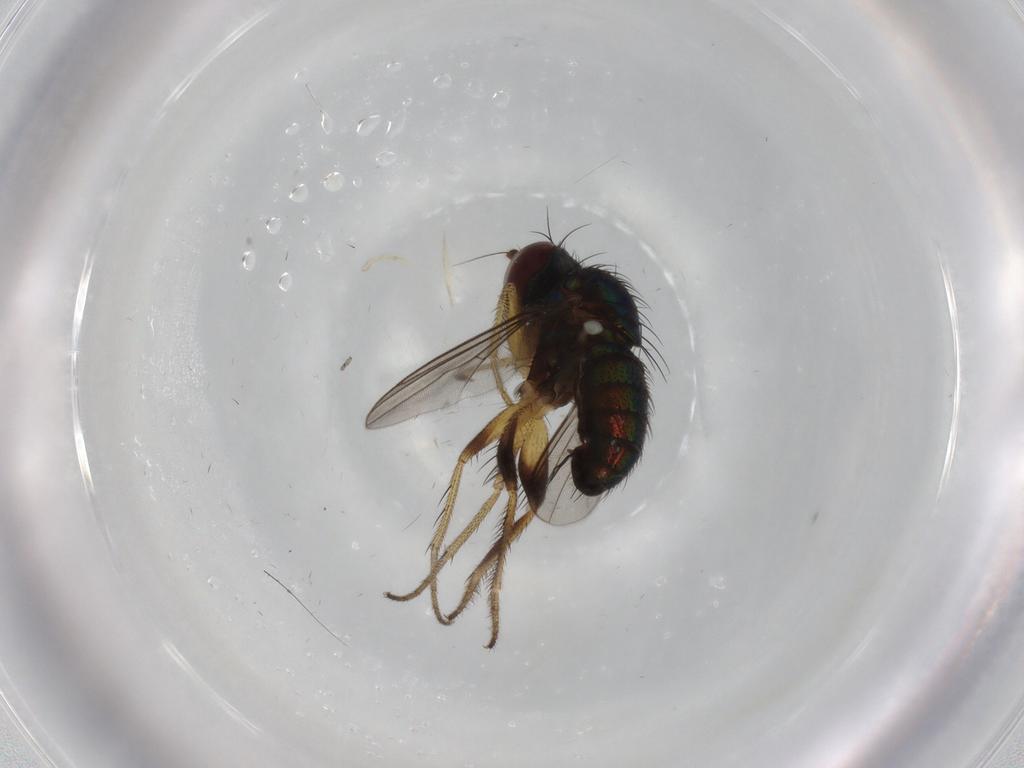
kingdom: Animalia
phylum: Arthropoda
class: Insecta
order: Diptera
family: Dolichopodidae
